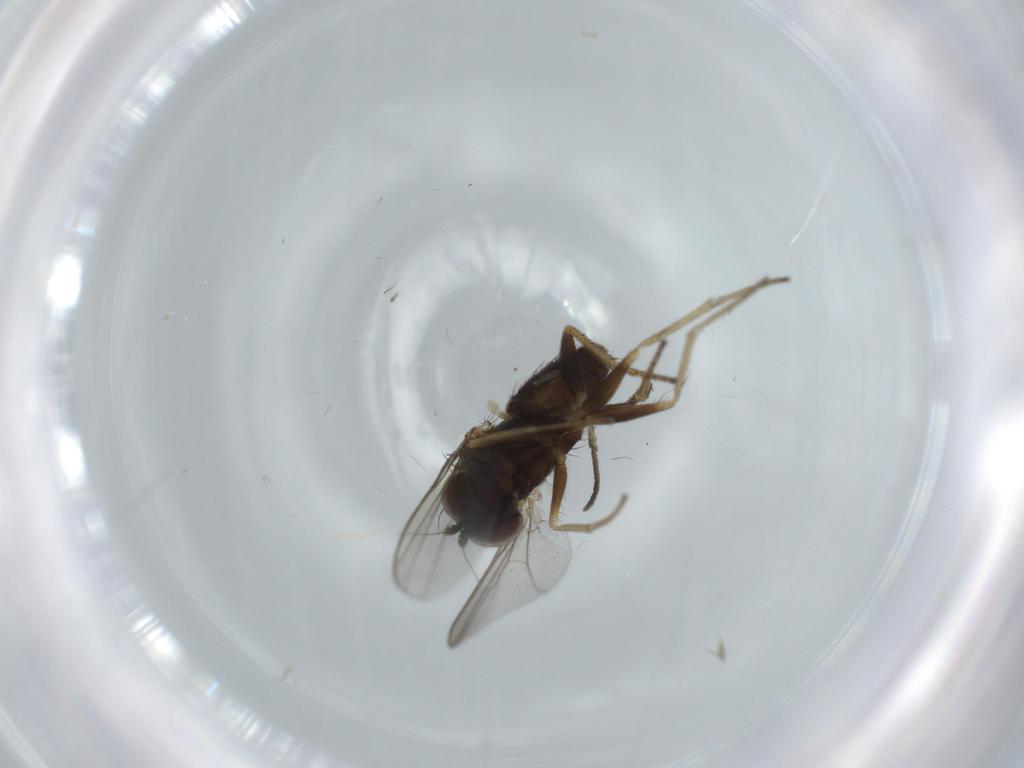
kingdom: Animalia
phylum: Arthropoda
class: Insecta
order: Diptera
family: Dolichopodidae
